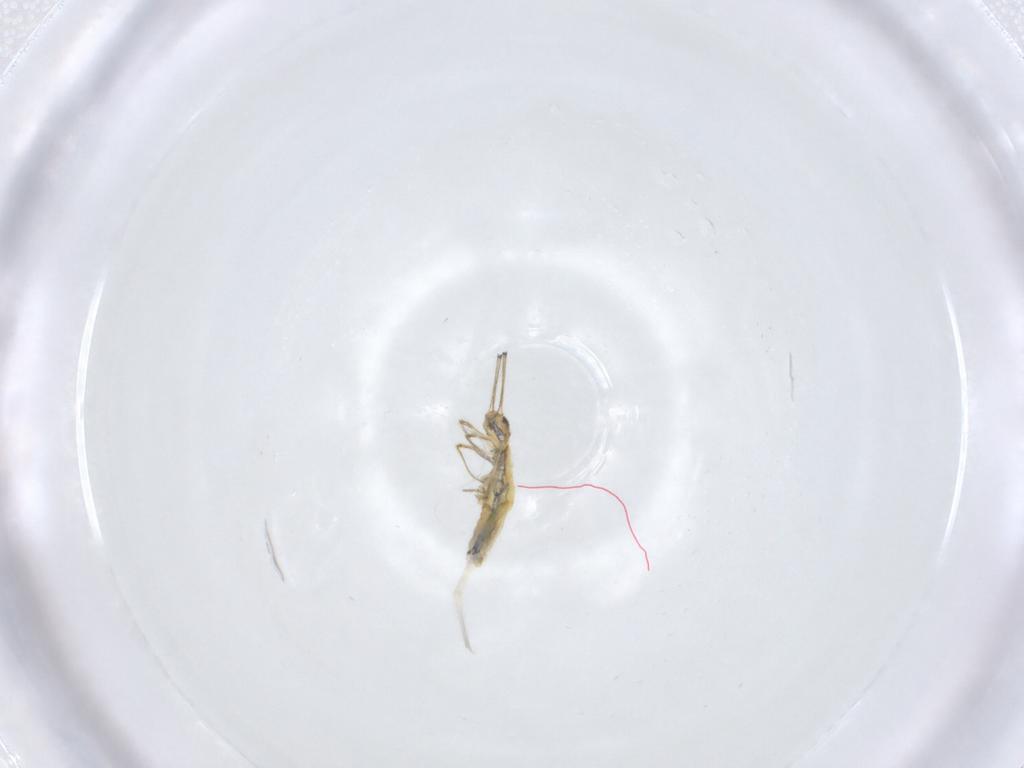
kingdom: Animalia
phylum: Arthropoda
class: Collembola
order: Entomobryomorpha
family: Entomobryidae
